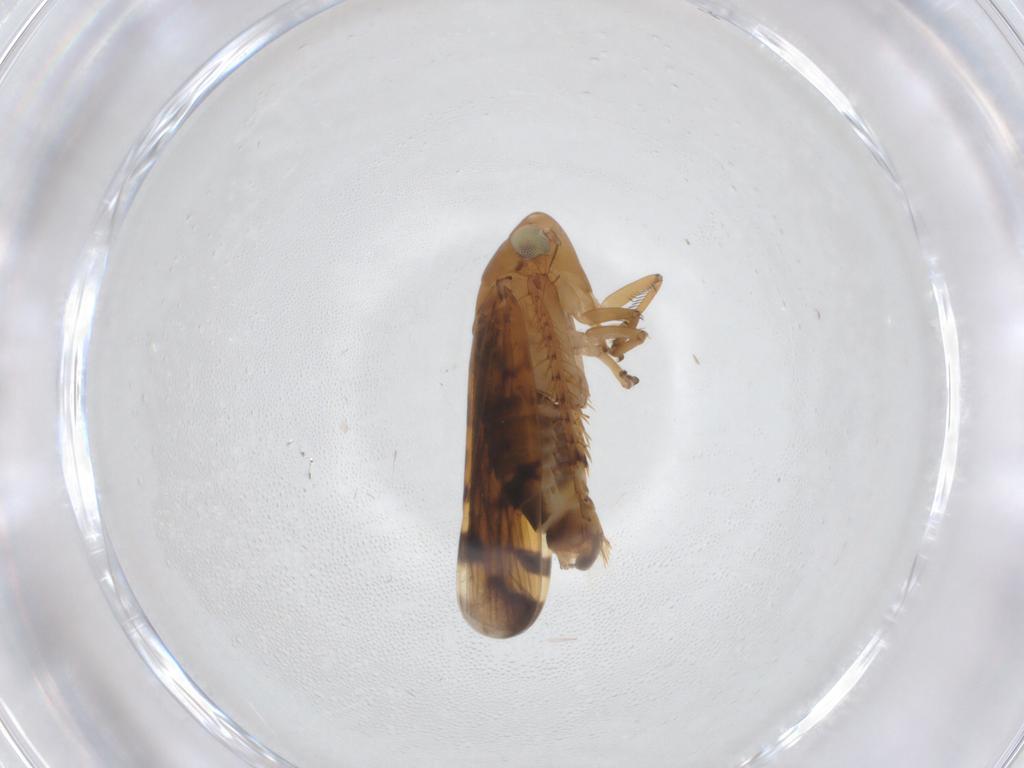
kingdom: Animalia
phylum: Arthropoda
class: Insecta
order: Hemiptera
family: Cicadellidae
